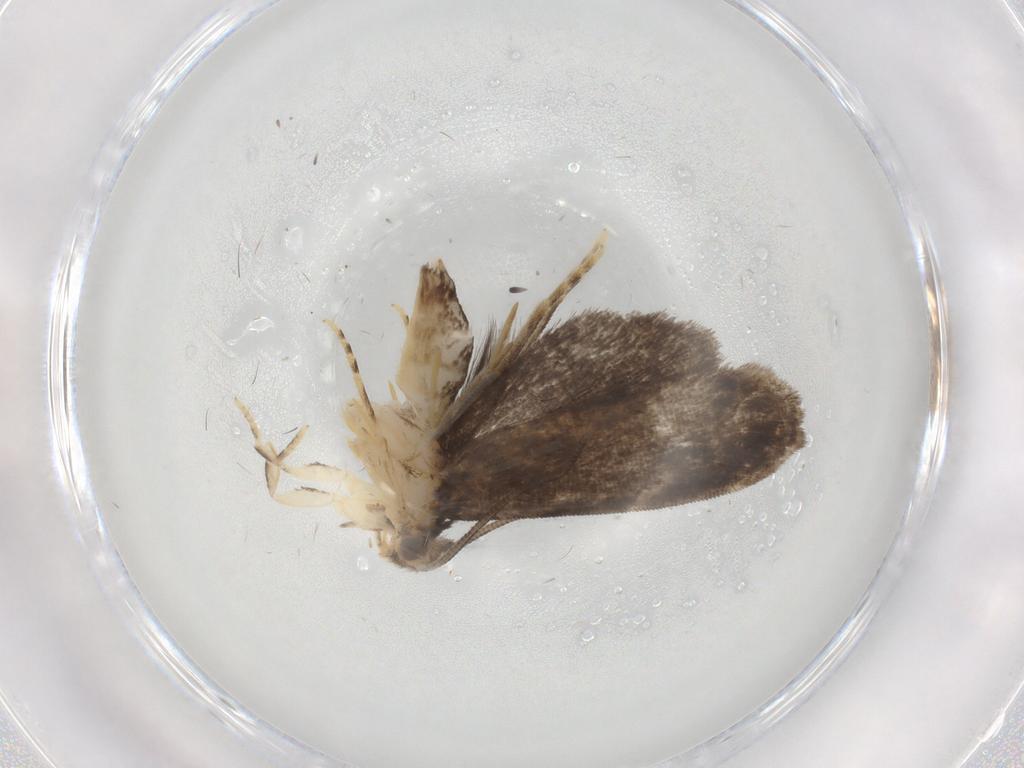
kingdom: Animalia
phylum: Arthropoda
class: Insecta
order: Lepidoptera
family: Dryadaulidae
